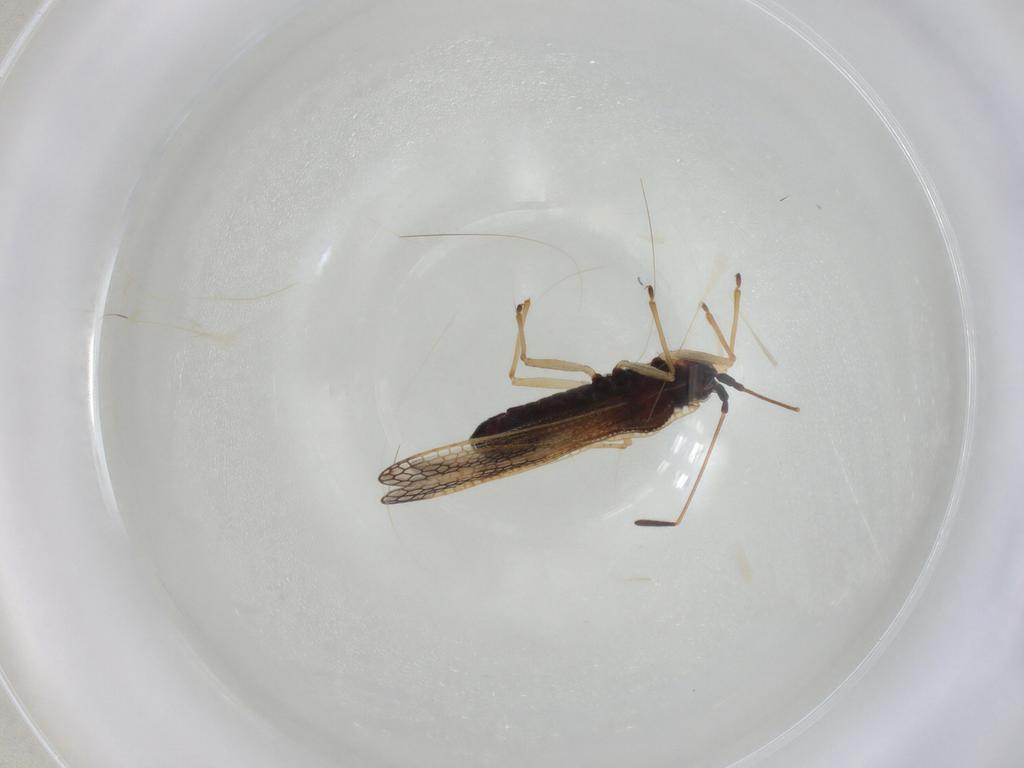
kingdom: Animalia
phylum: Arthropoda
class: Insecta
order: Hemiptera
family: Tingidae
